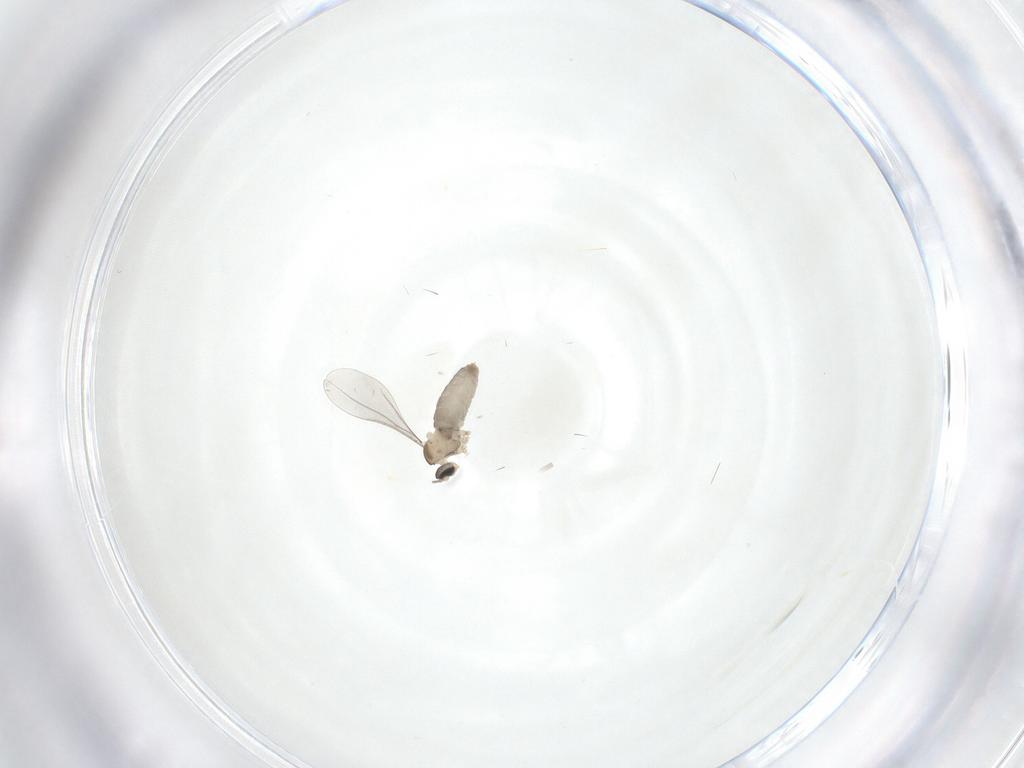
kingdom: Animalia
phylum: Arthropoda
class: Insecta
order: Diptera
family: Cecidomyiidae
